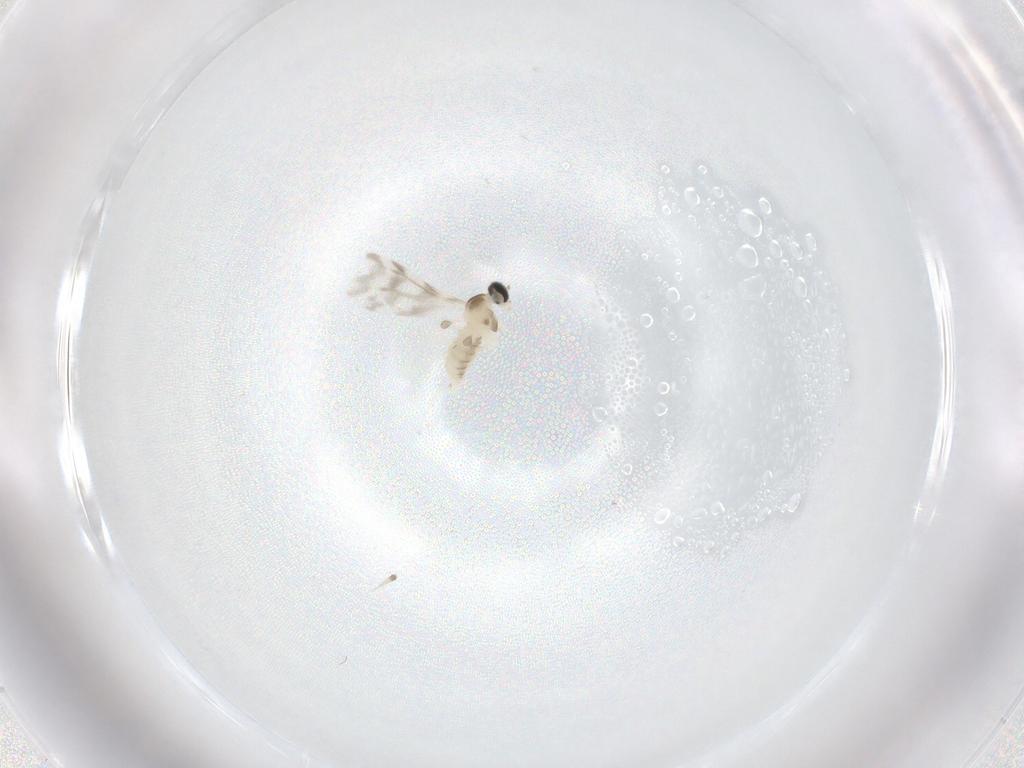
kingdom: Animalia
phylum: Arthropoda
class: Insecta
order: Diptera
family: Cecidomyiidae
